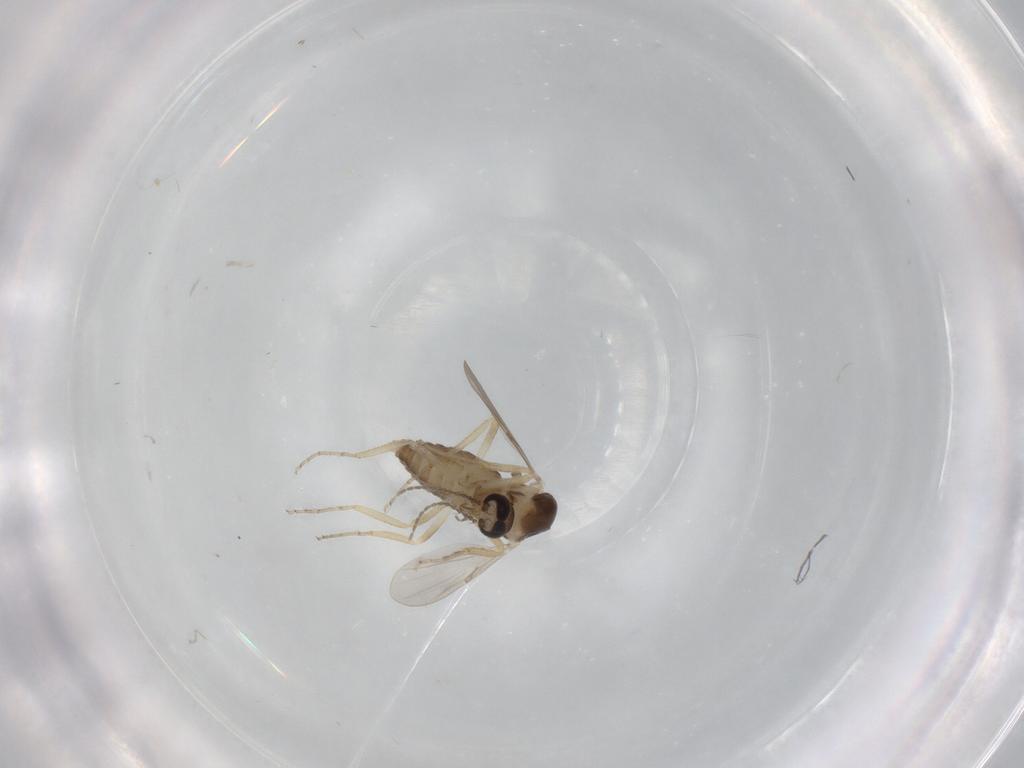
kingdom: Animalia
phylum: Arthropoda
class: Insecta
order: Diptera
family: Ceratopogonidae
